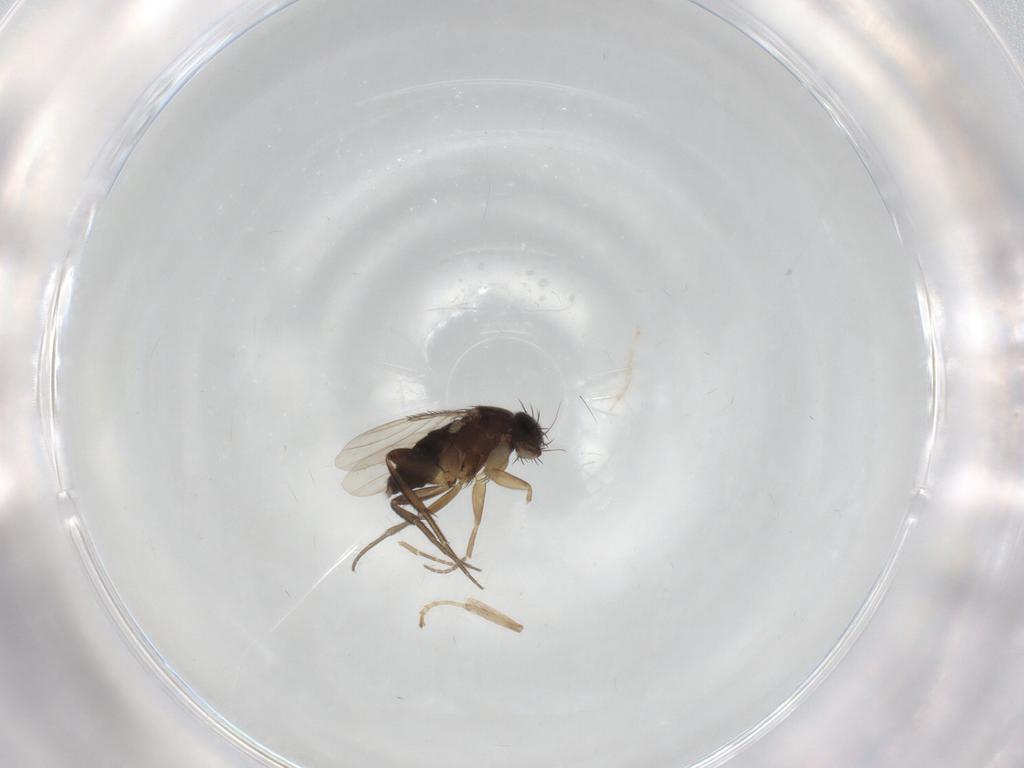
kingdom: Animalia
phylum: Arthropoda
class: Insecta
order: Diptera
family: Phoridae
